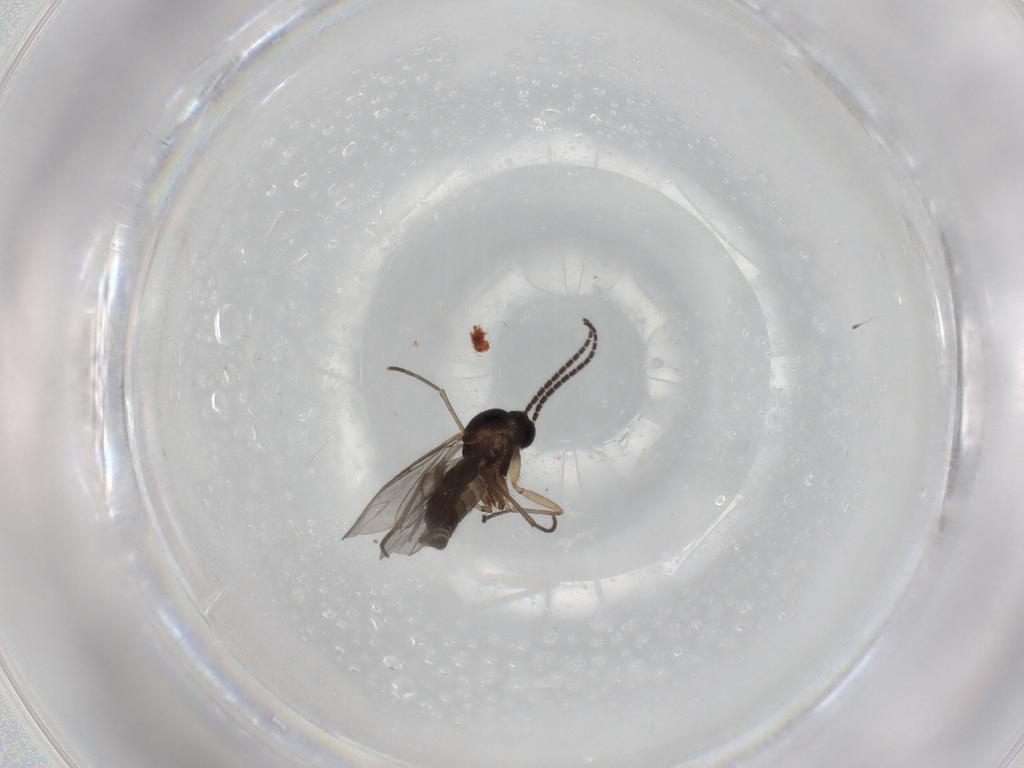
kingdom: Animalia
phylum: Arthropoda
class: Insecta
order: Diptera
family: Sciaridae
